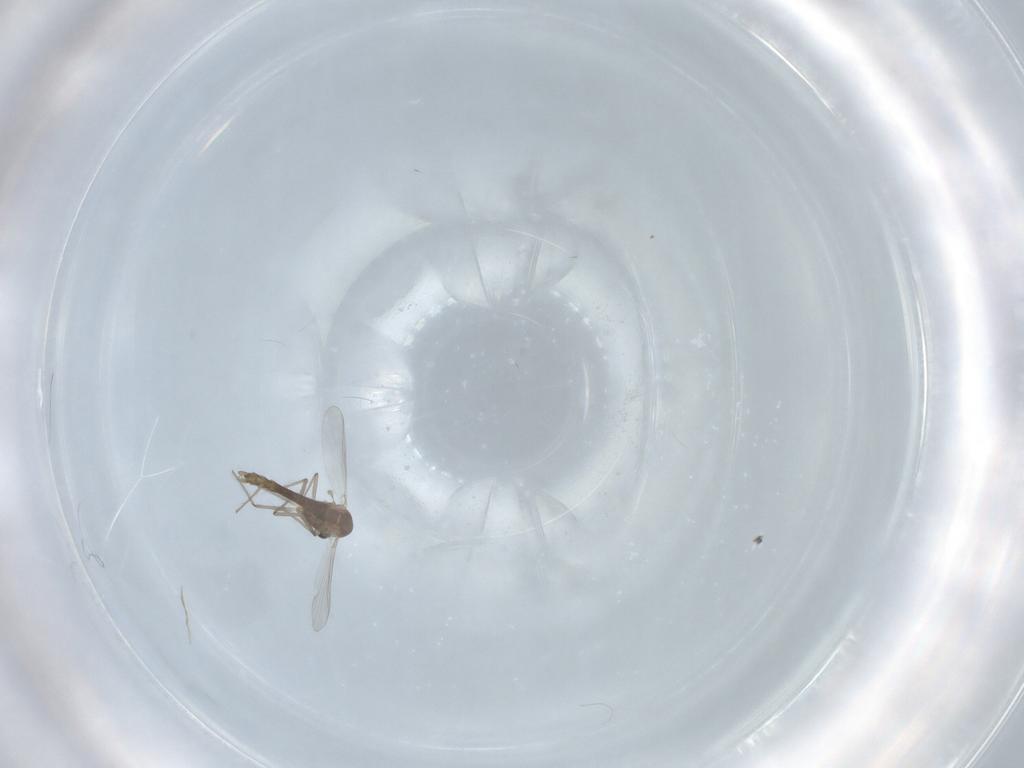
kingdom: Animalia
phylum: Arthropoda
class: Insecta
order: Diptera
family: Chironomidae
